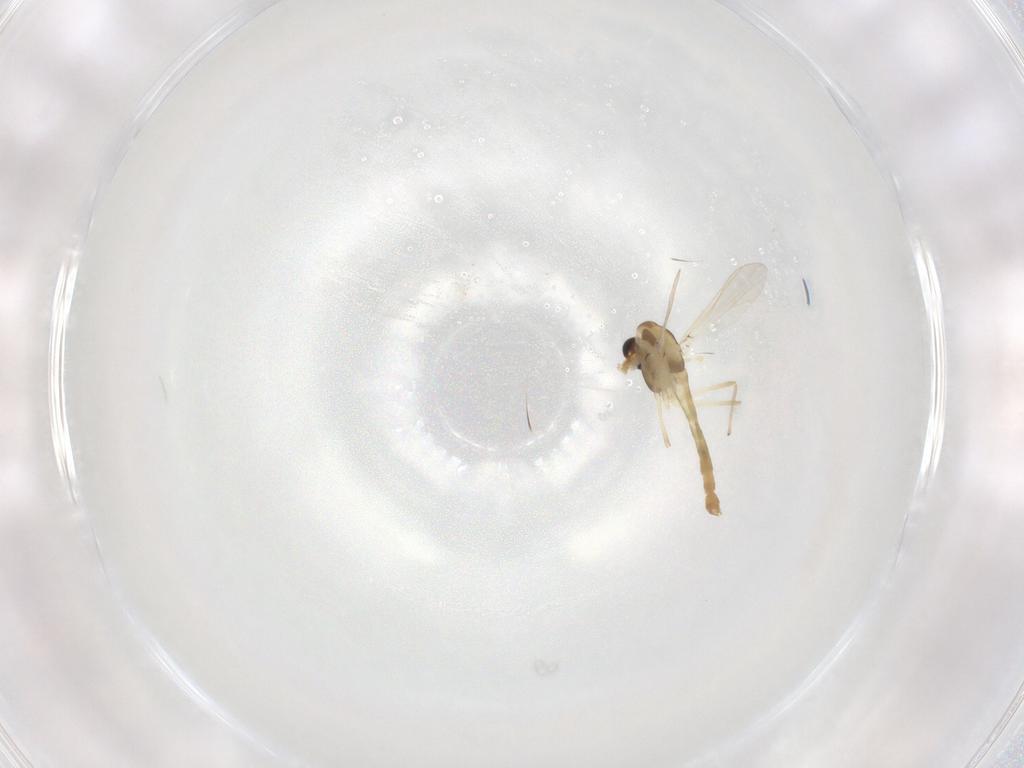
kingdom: Animalia
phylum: Arthropoda
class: Insecta
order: Diptera
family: Chironomidae
